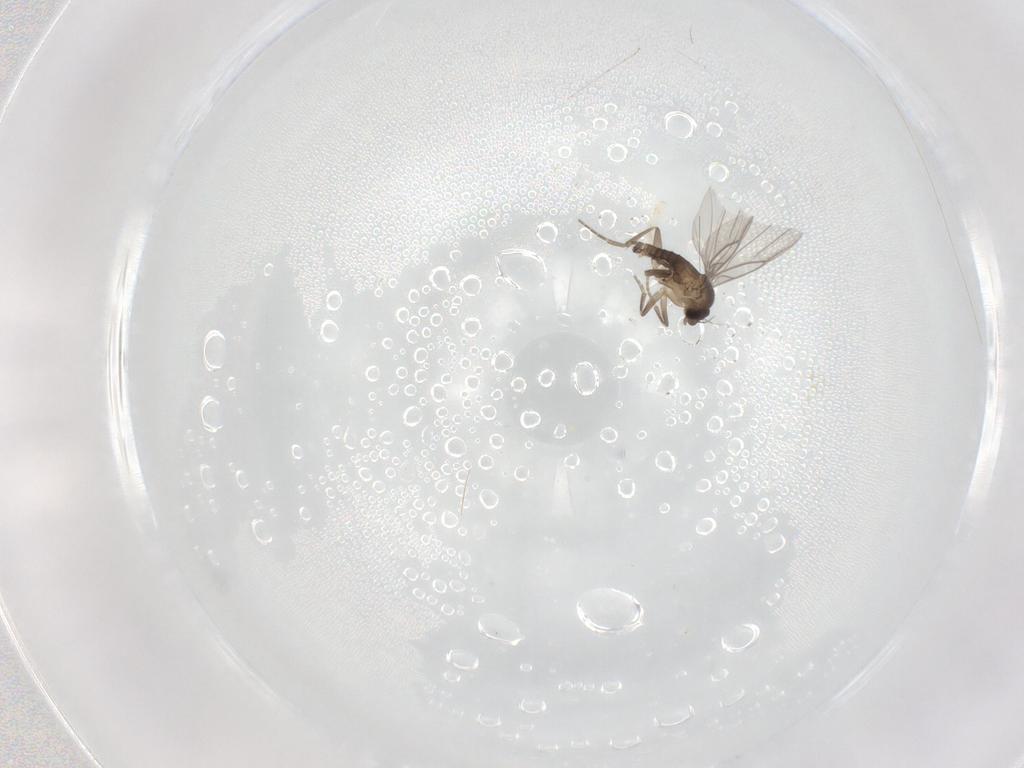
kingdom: Animalia
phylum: Arthropoda
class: Insecta
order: Diptera
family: Phoridae
